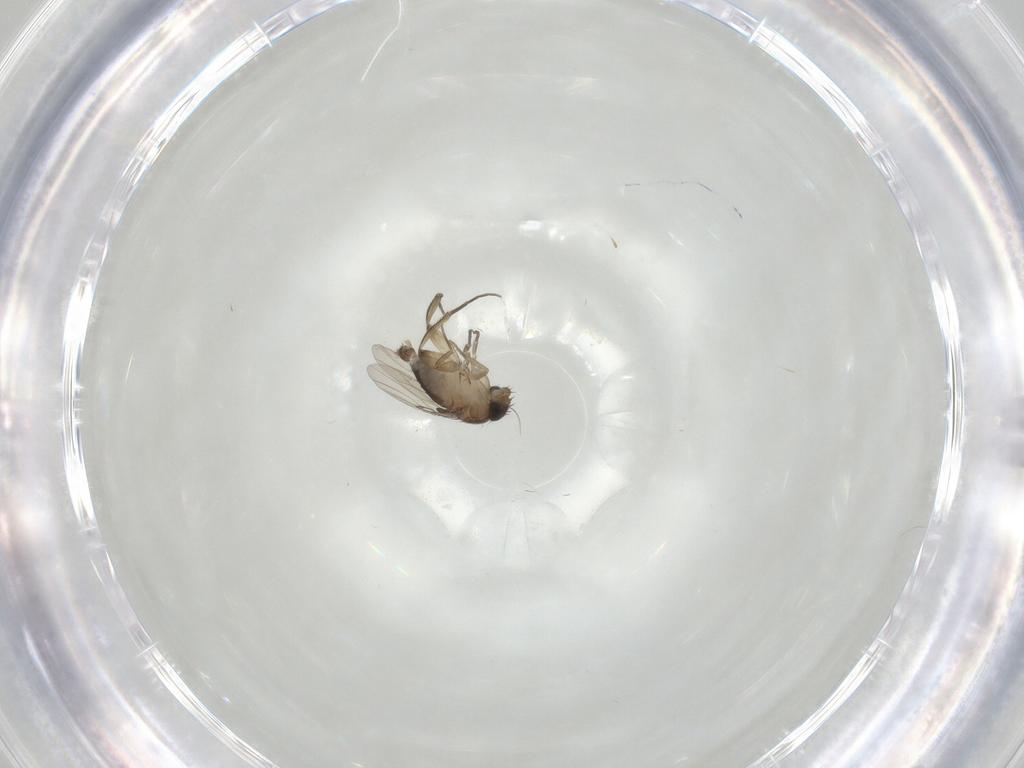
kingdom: Animalia
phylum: Arthropoda
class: Insecta
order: Diptera
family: Phoridae
